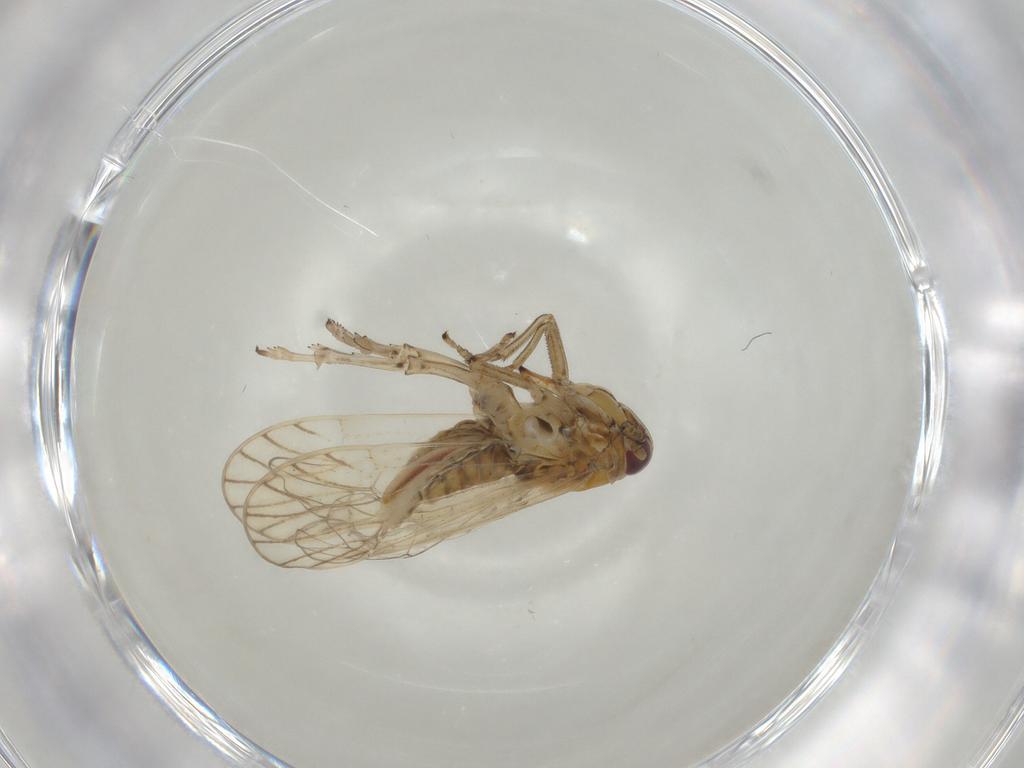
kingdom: Animalia
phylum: Arthropoda
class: Insecta
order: Hemiptera
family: Delphacidae
